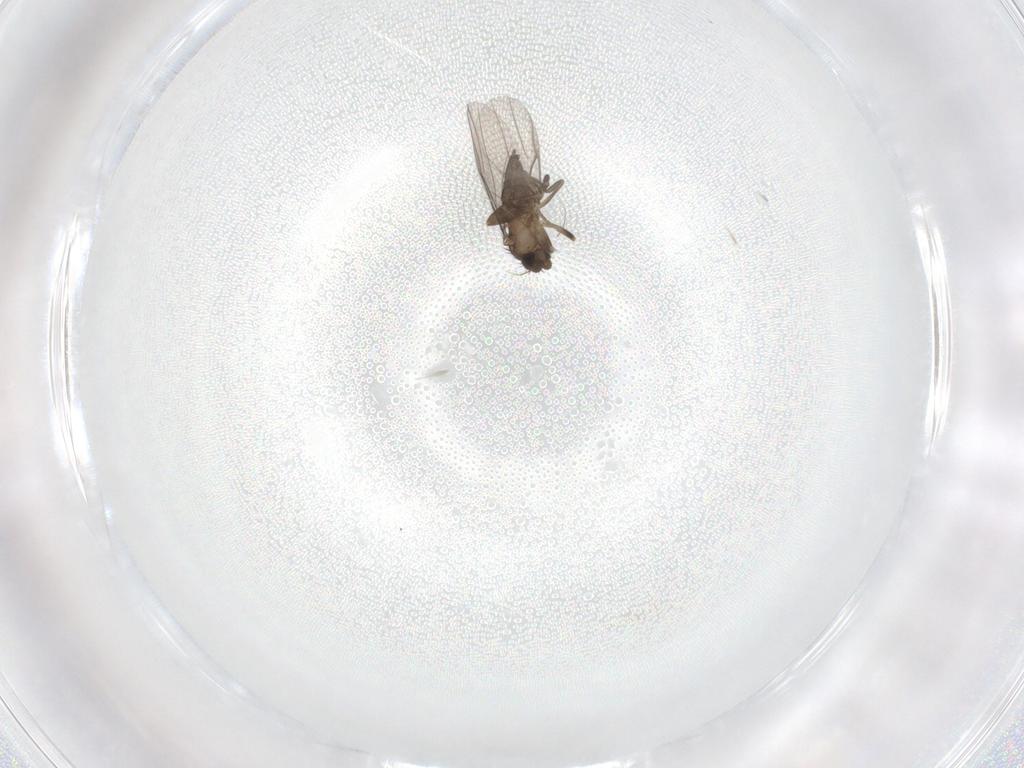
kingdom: Animalia
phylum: Arthropoda
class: Insecta
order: Diptera
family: Phoridae
